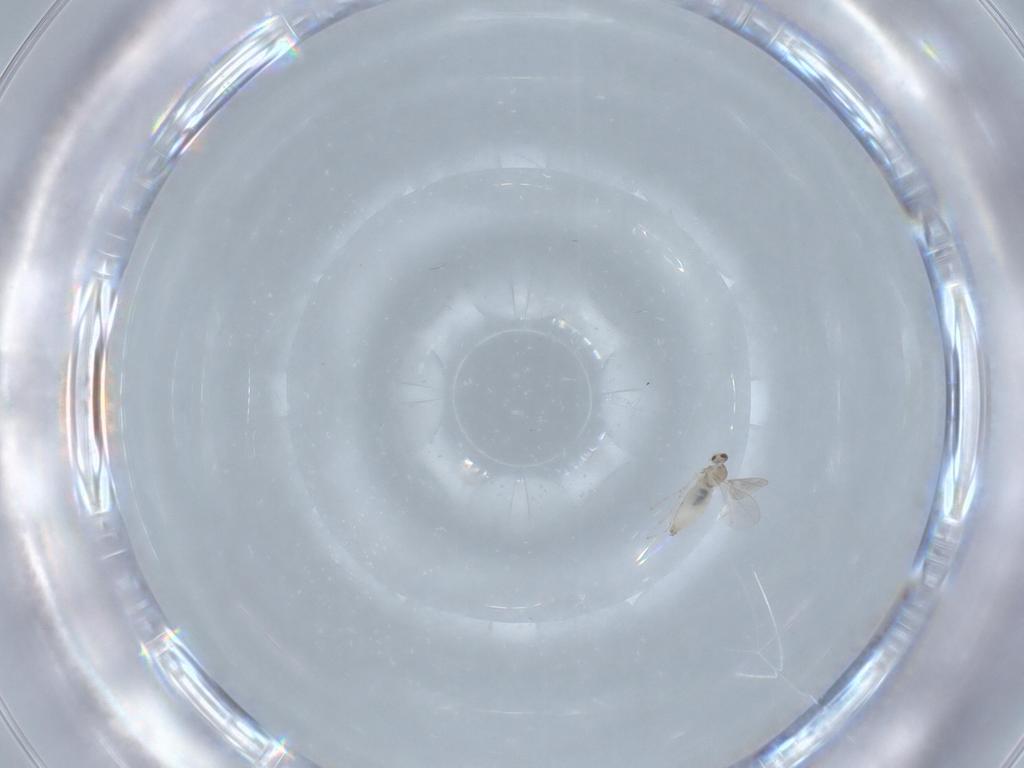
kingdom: Animalia
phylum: Arthropoda
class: Insecta
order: Diptera
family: Cecidomyiidae
